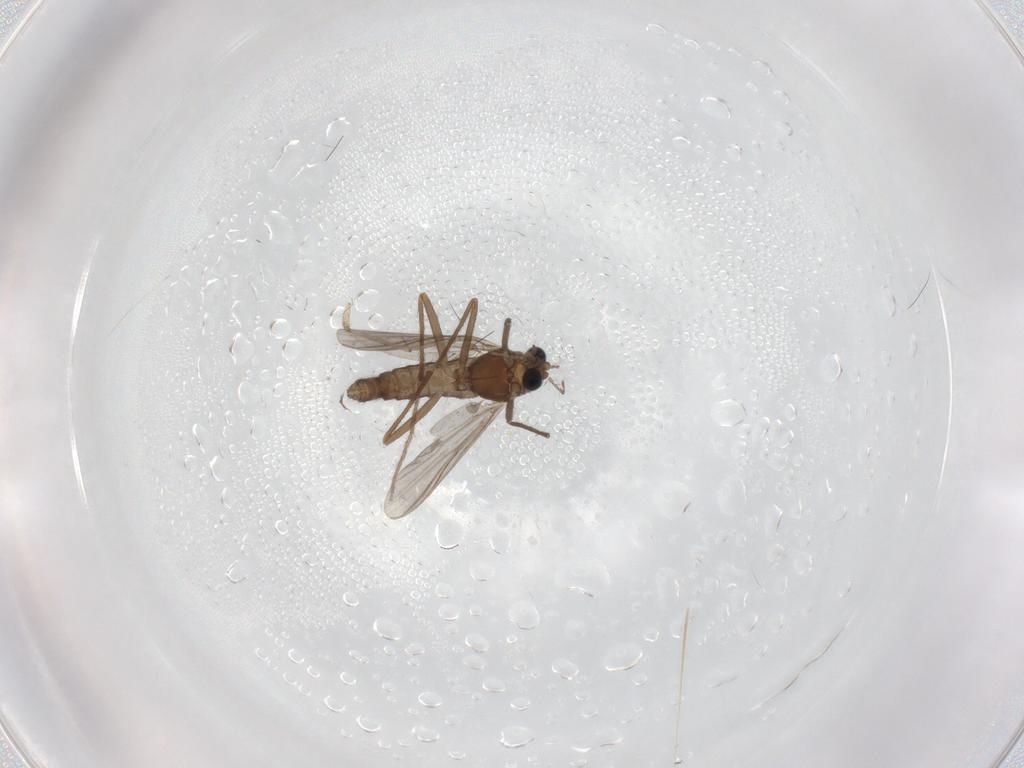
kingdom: Animalia
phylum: Arthropoda
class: Insecta
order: Diptera
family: Chironomidae
